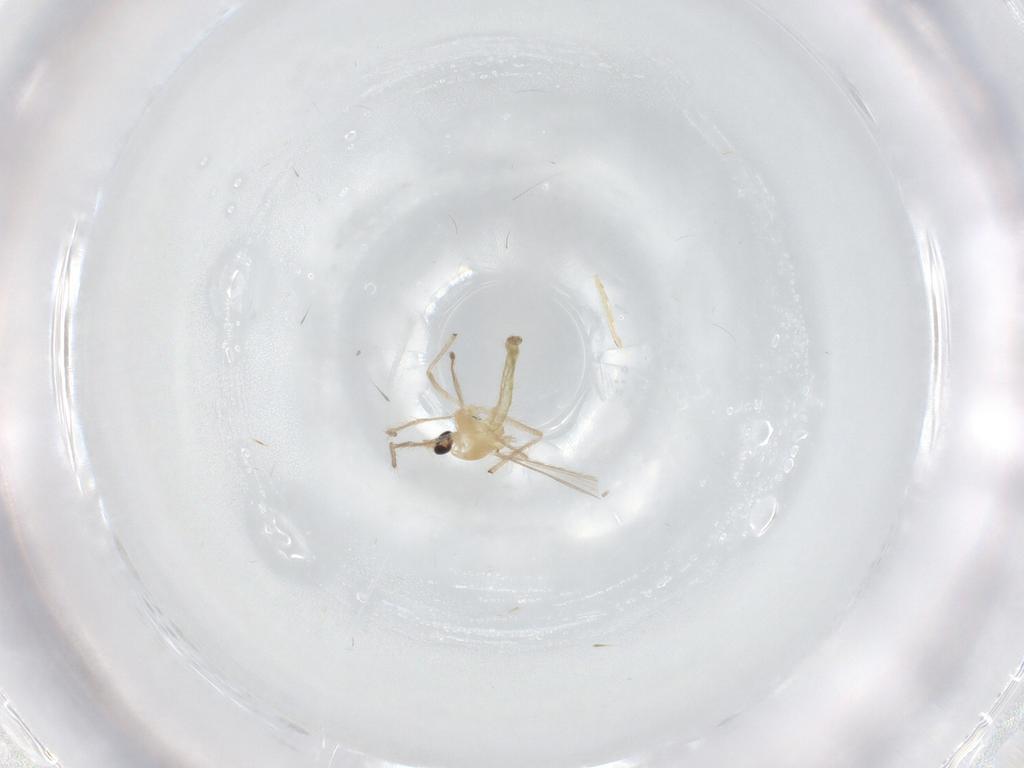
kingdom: Animalia
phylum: Arthropoda
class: Insecta
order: Diptera
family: Chironomidae
